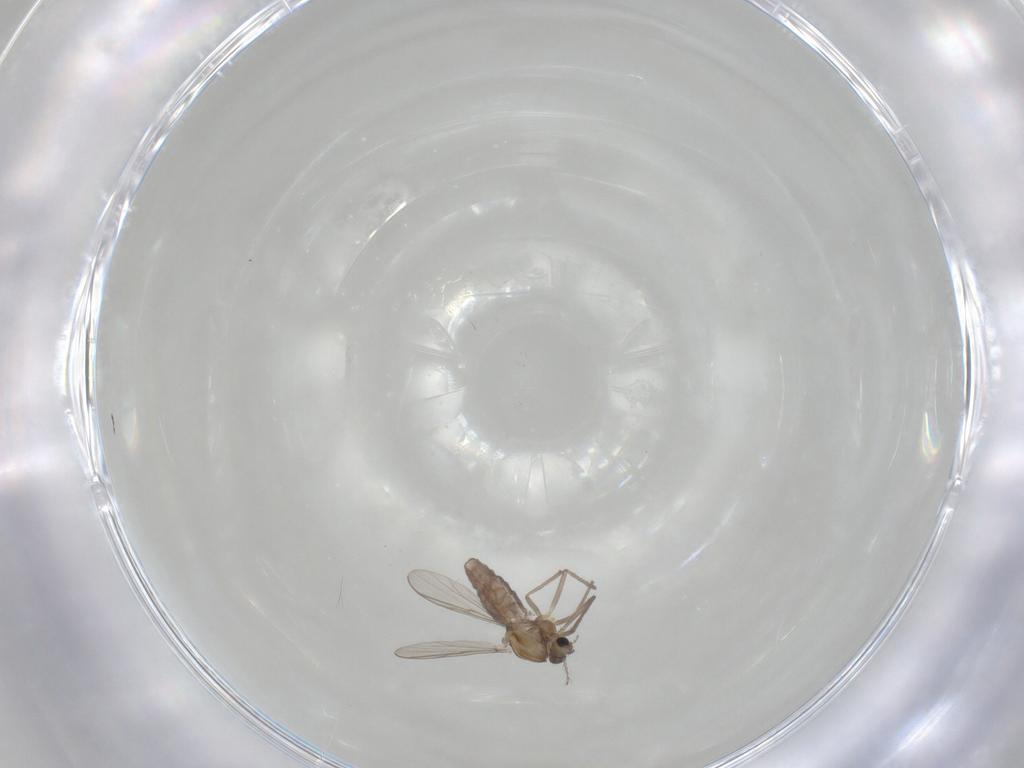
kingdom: Animalia
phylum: Arthropoda
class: Insecta
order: Diptera
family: Chironomidae
